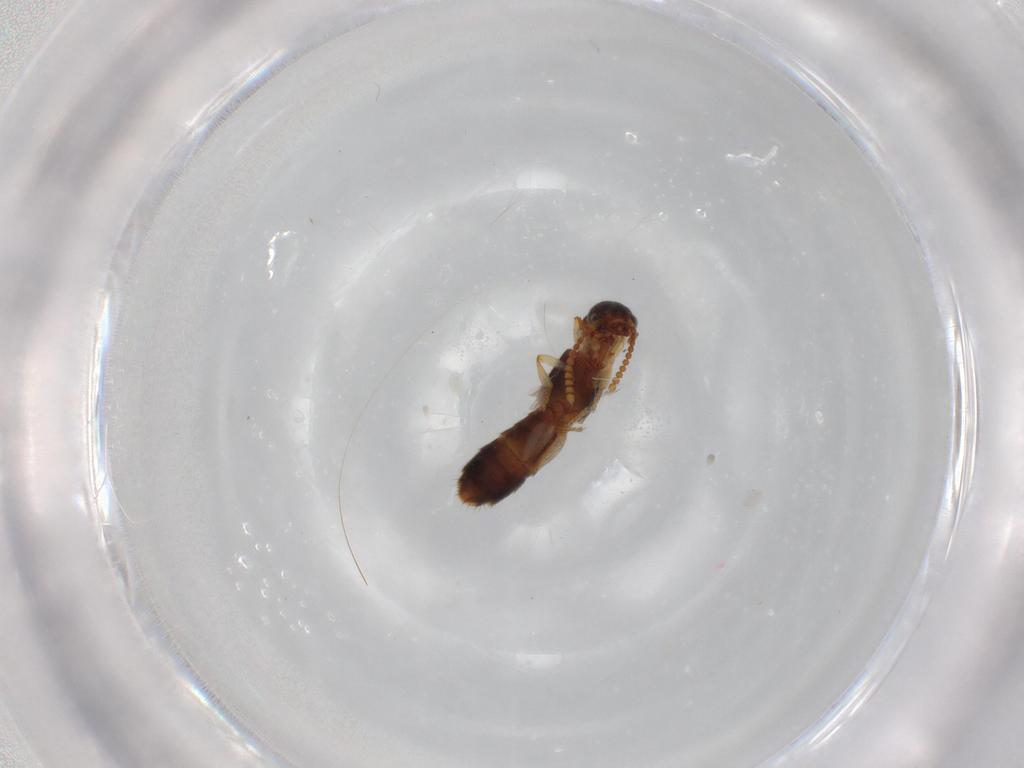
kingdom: Animalia
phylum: Arthropoda
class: Insecta
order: Coleoptera
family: Staphylinidae
